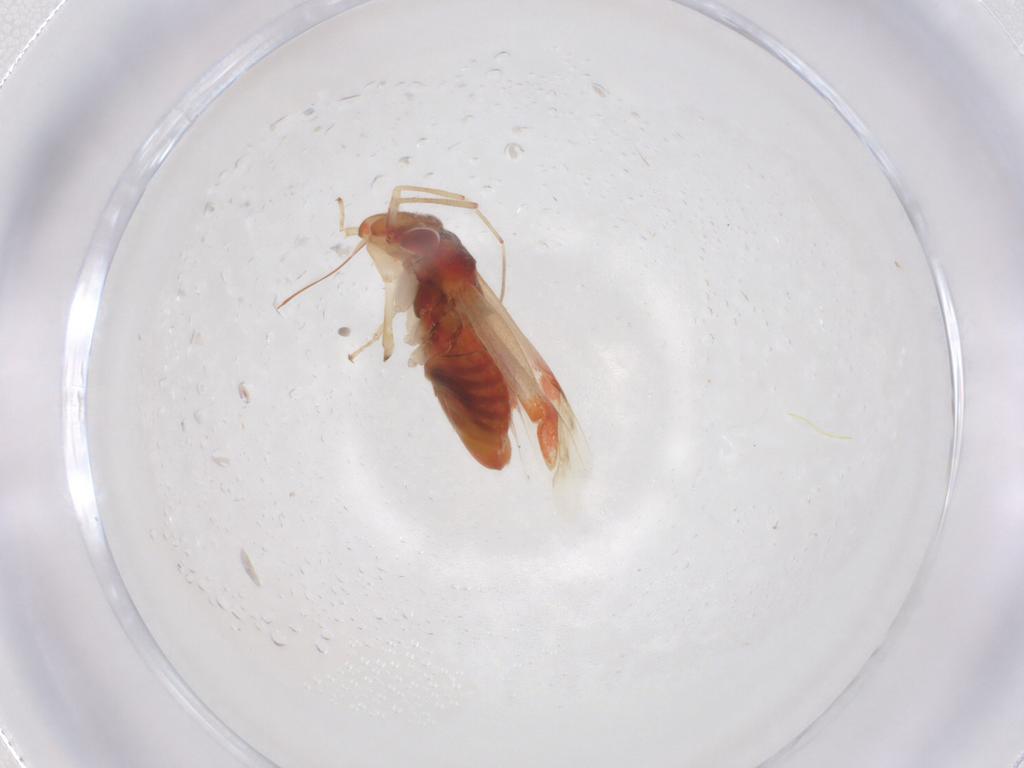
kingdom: Animalia
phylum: Arthropoda
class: Insecta
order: Hemiptera
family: Miridae
